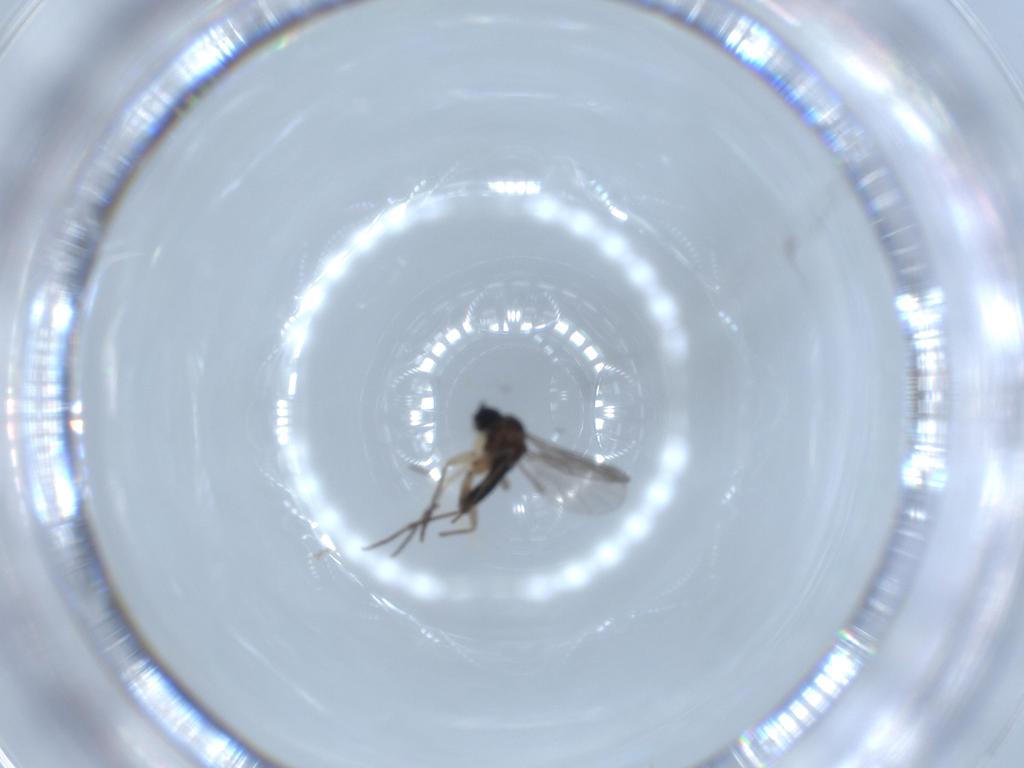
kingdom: Animalia
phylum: Arthropoda
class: Insecta
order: Diptera
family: Sciaridae
